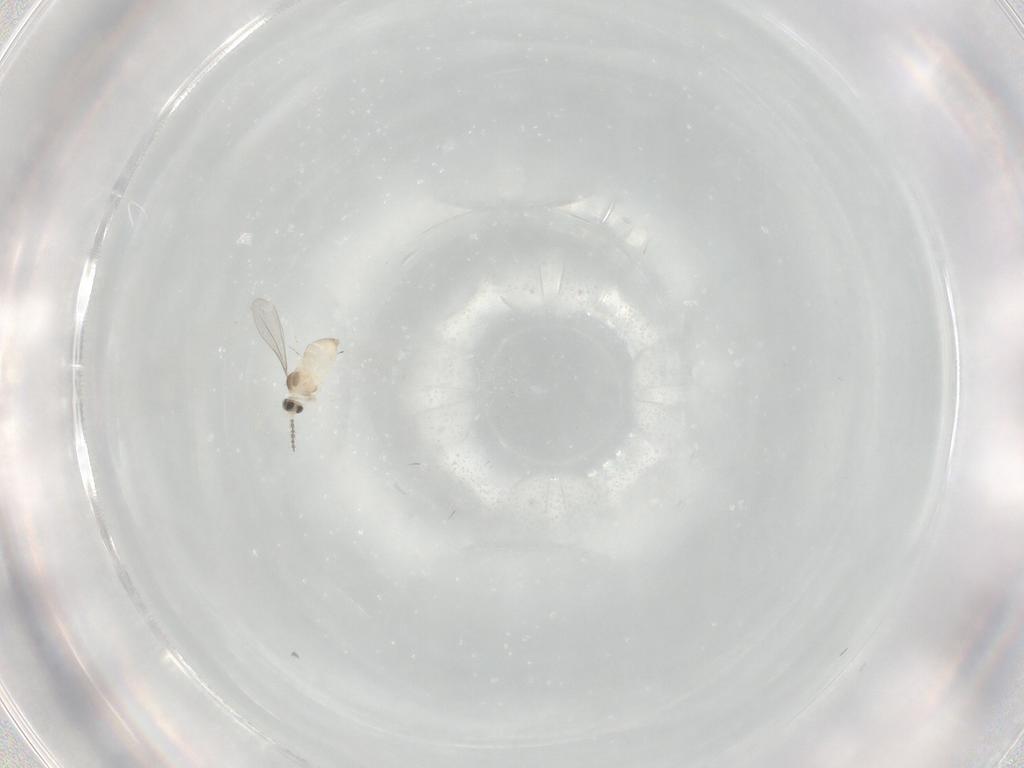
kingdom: Animalia
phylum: Arthropoda
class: Insecta
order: Diptera
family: Cecidomyiidae
